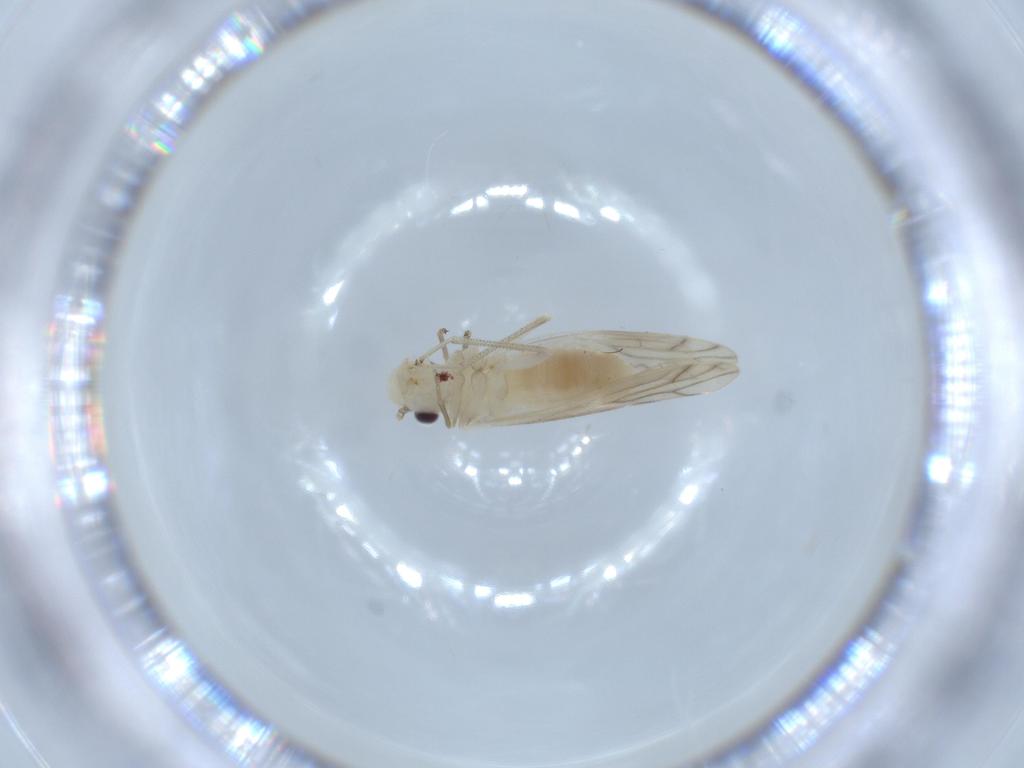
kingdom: Animalia
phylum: Arthropoda
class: Insecta
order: Psocodea
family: Caeciliusidae
